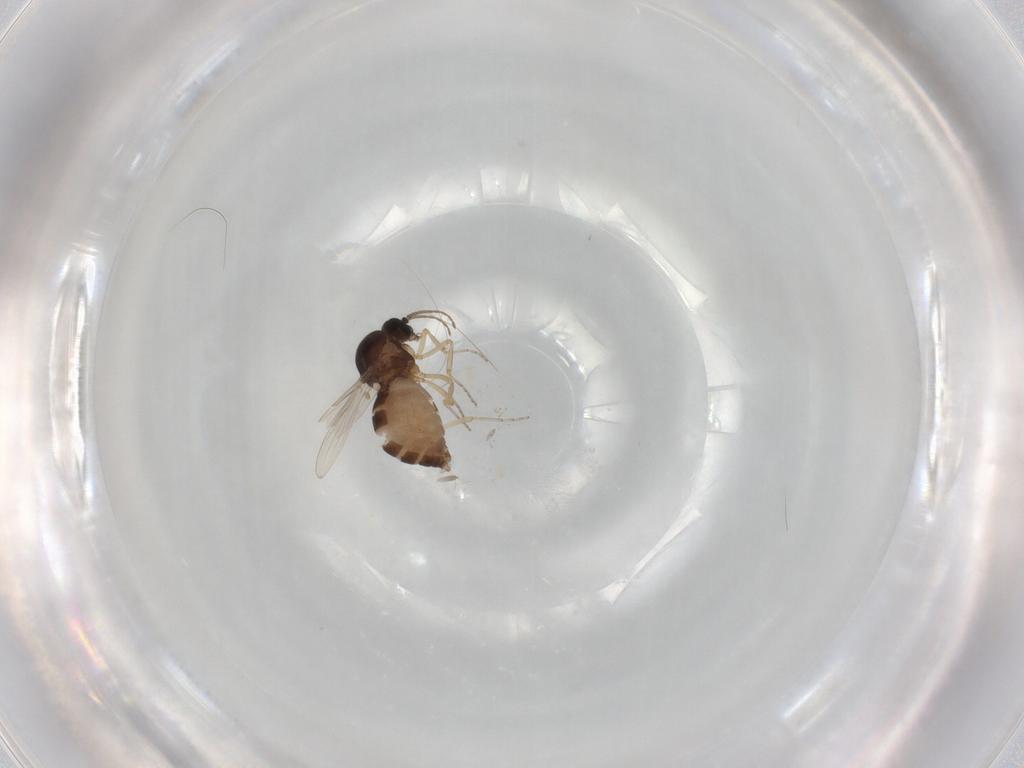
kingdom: Animalia
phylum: Arthropoda
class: Insecta
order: Diptera
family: Ceratopogonidae
